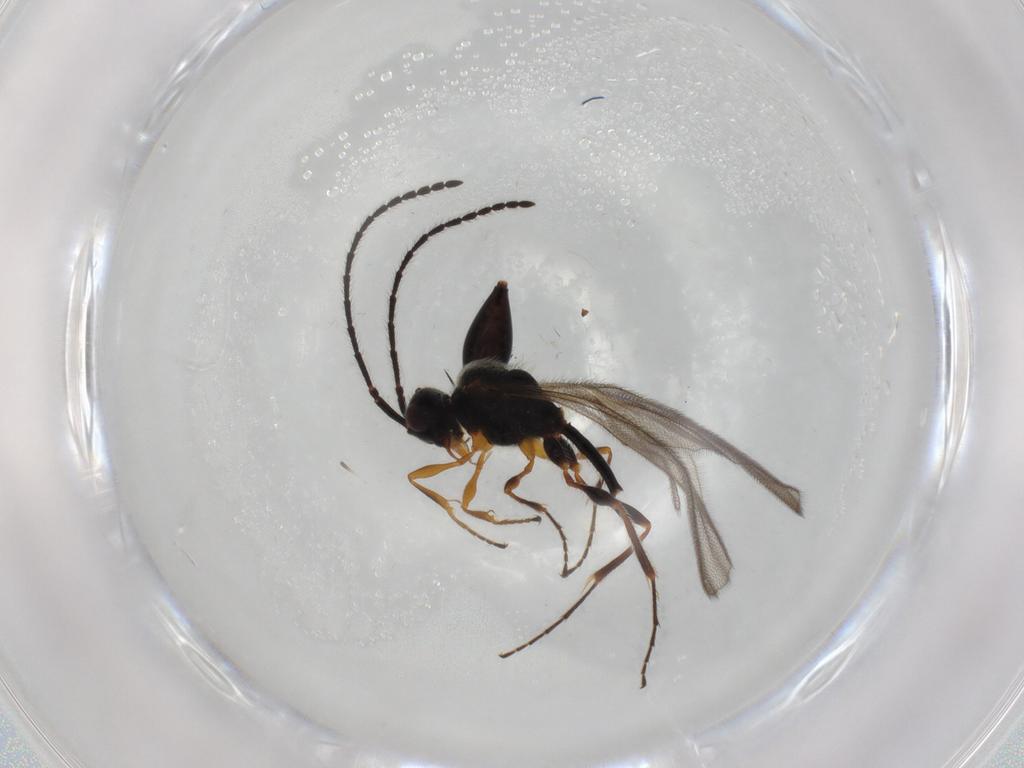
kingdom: Animalia
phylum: Arthropoda
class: Insecta
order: Hymenoptera
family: Diapriidae
